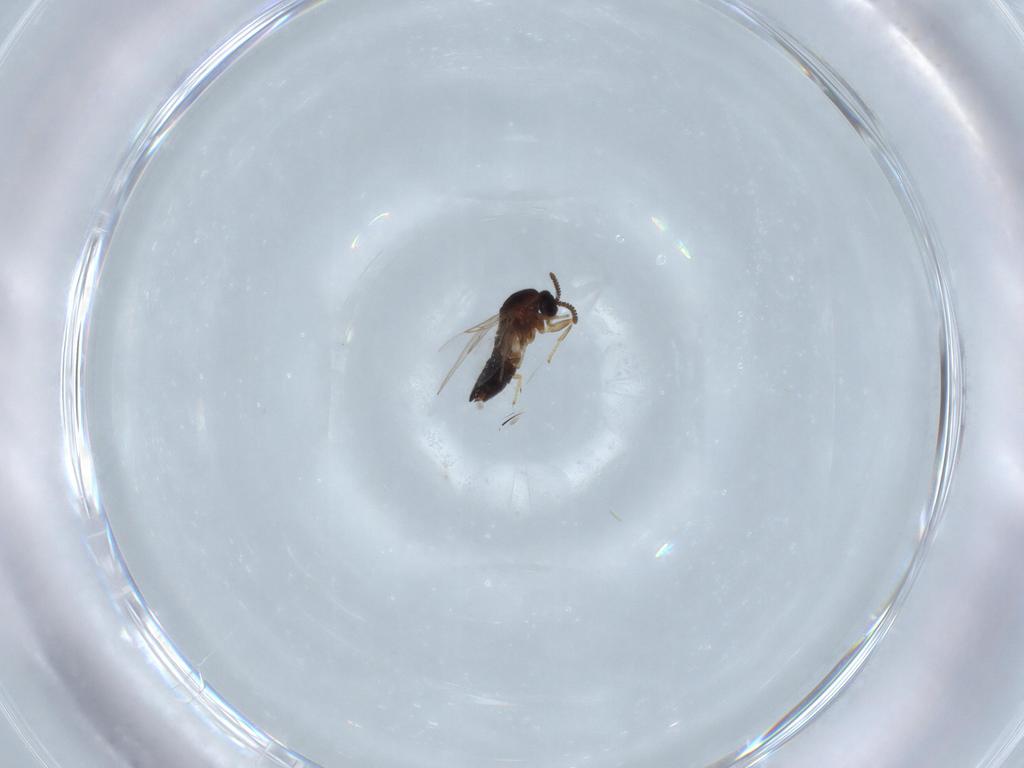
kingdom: Animalia
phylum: Arthropoda
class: Insecta
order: Diptera
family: Scatopsidae
